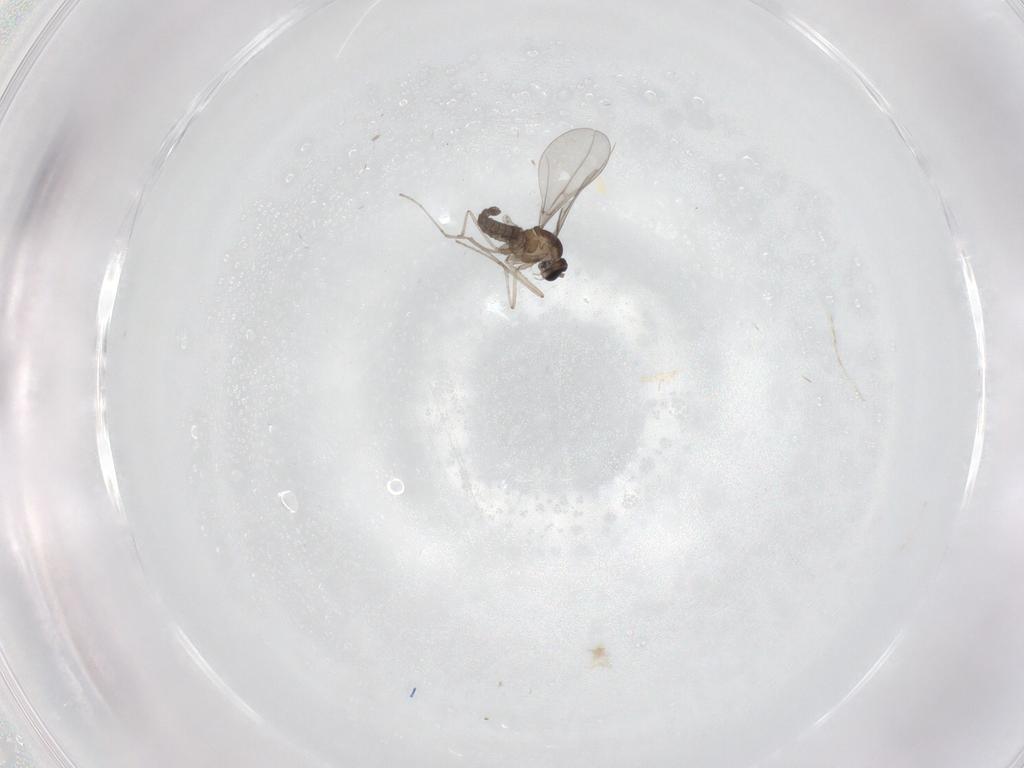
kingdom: Animalia
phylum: Arthropoda
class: Insecta
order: Diptera
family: Cecidomyiidae
